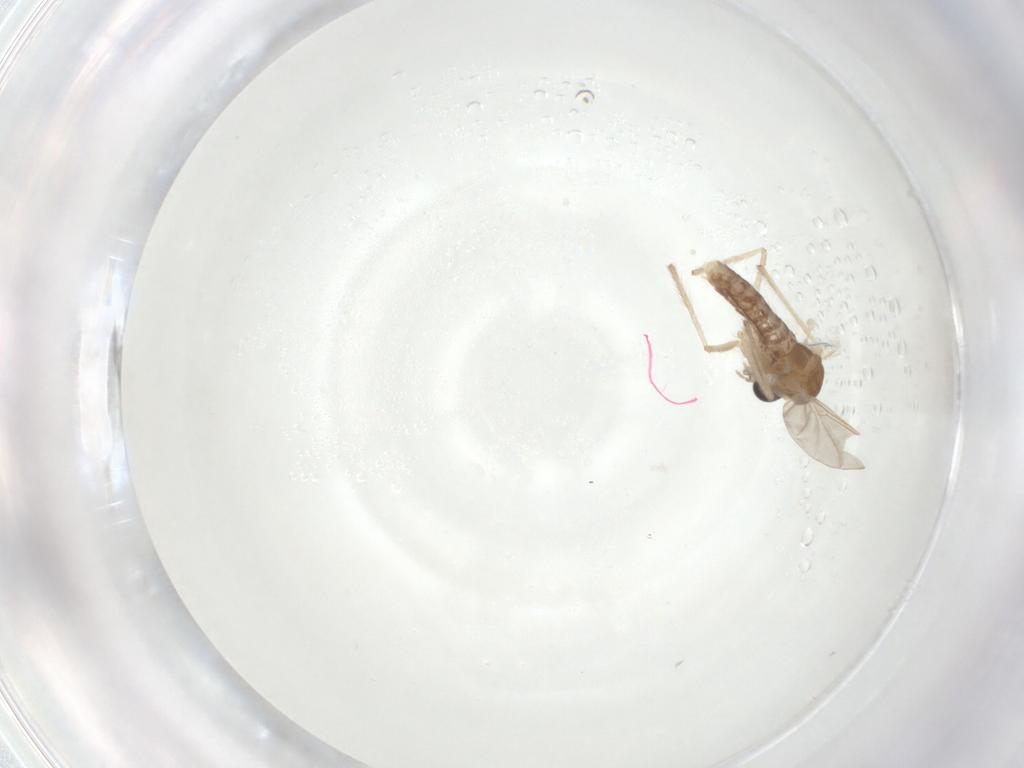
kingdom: Animalia
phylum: Arthropoda
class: Insecta
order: Diptera
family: Chironomidae
